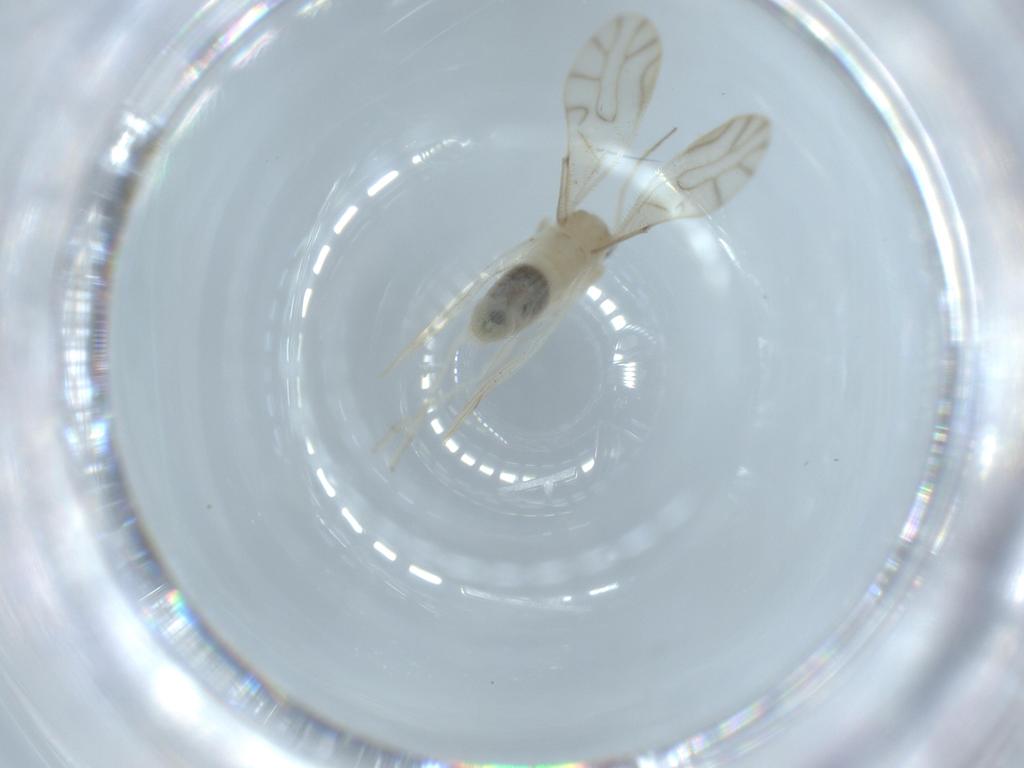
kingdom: Animalia
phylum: Arthropoda
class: Insecta
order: Psocodea
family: Caeciliusidae
